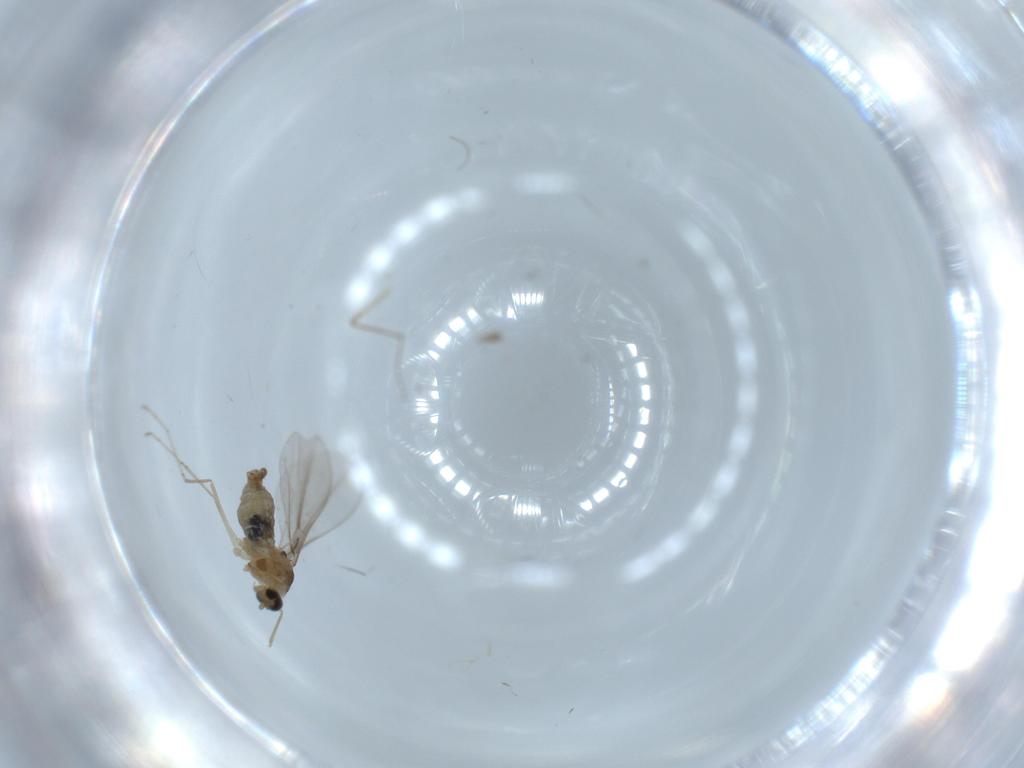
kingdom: Animalia
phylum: Arthropoda
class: Insecta
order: Diptera
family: Cecidomyiidae
